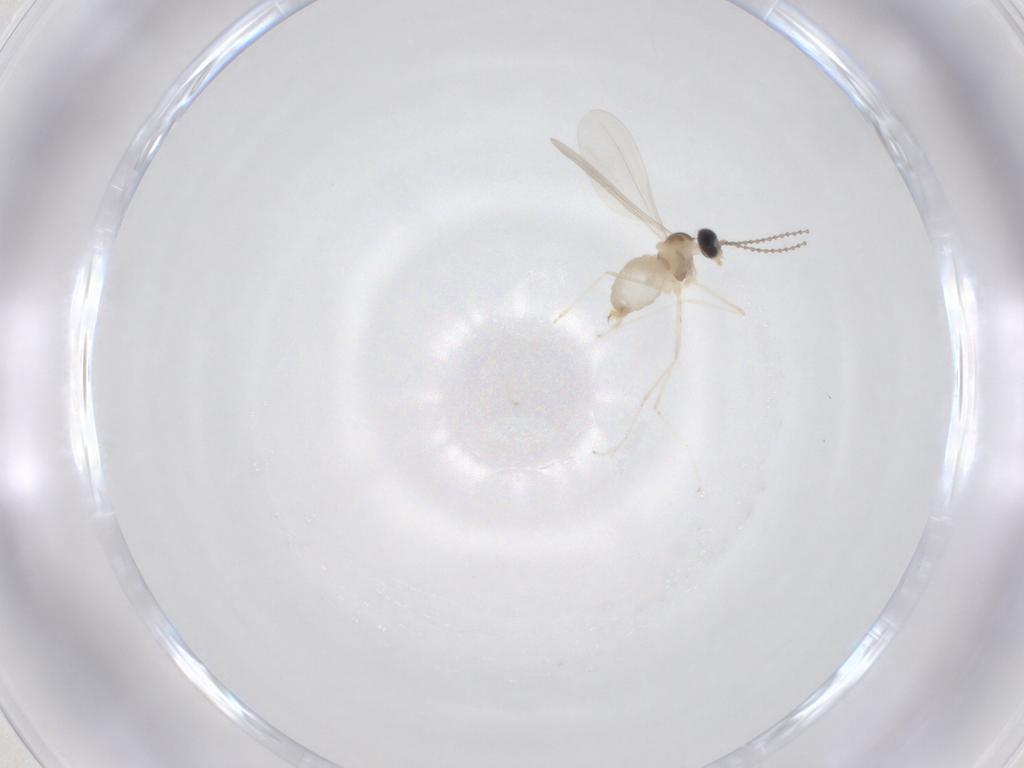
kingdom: Animalia
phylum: Arthropoda
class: Insecta
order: Diptera
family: Cecidomyiidae
